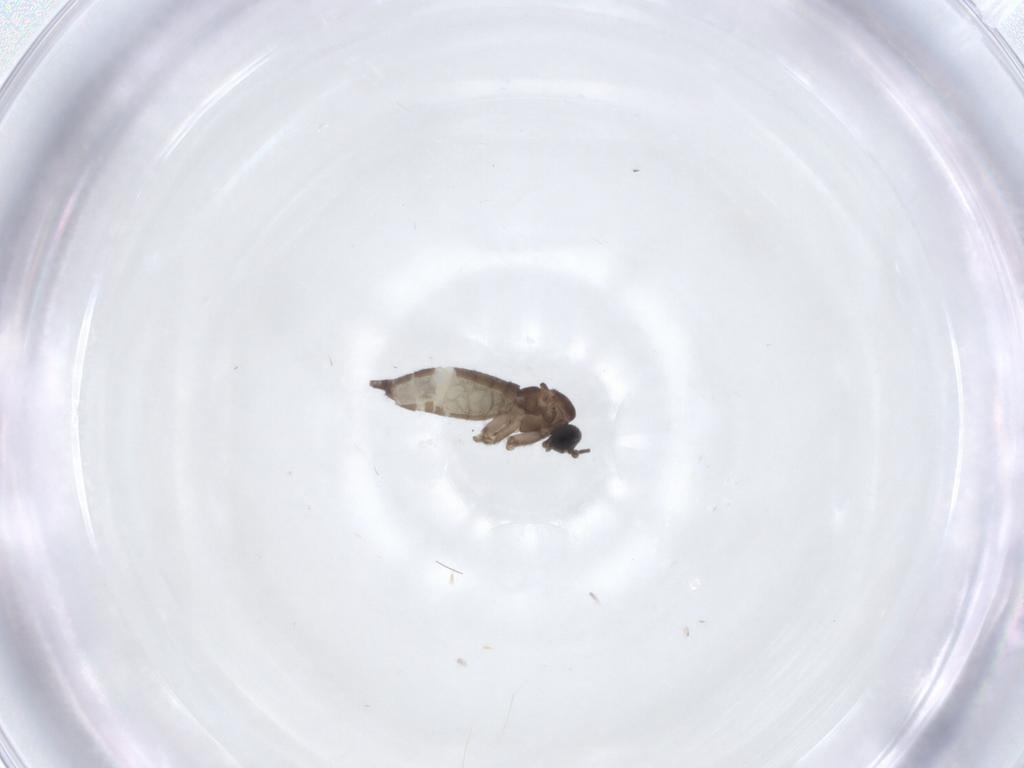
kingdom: Animalia
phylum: Arthropoda
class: Insecta
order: Diptera
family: Sciaridae
